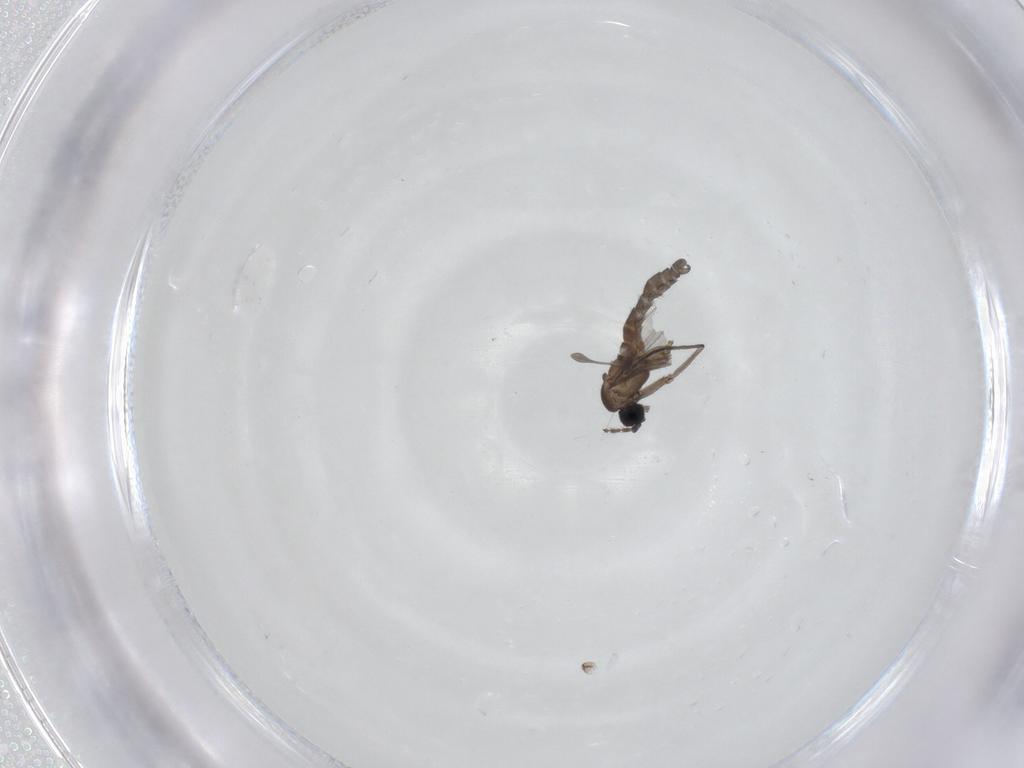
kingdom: Animalia
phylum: Arthropoda
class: Insecta
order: Diptera
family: Sciaridae
